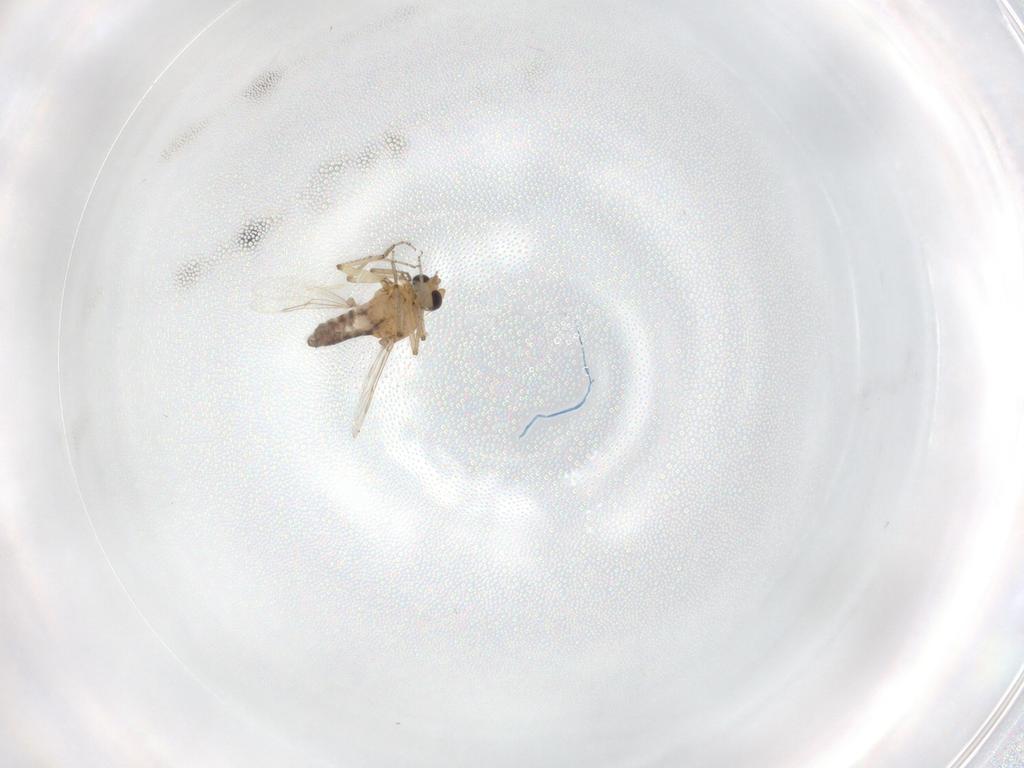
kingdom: Animalia
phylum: Arthropoda
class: Insecta
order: Diptera
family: Ceratopogonidae
